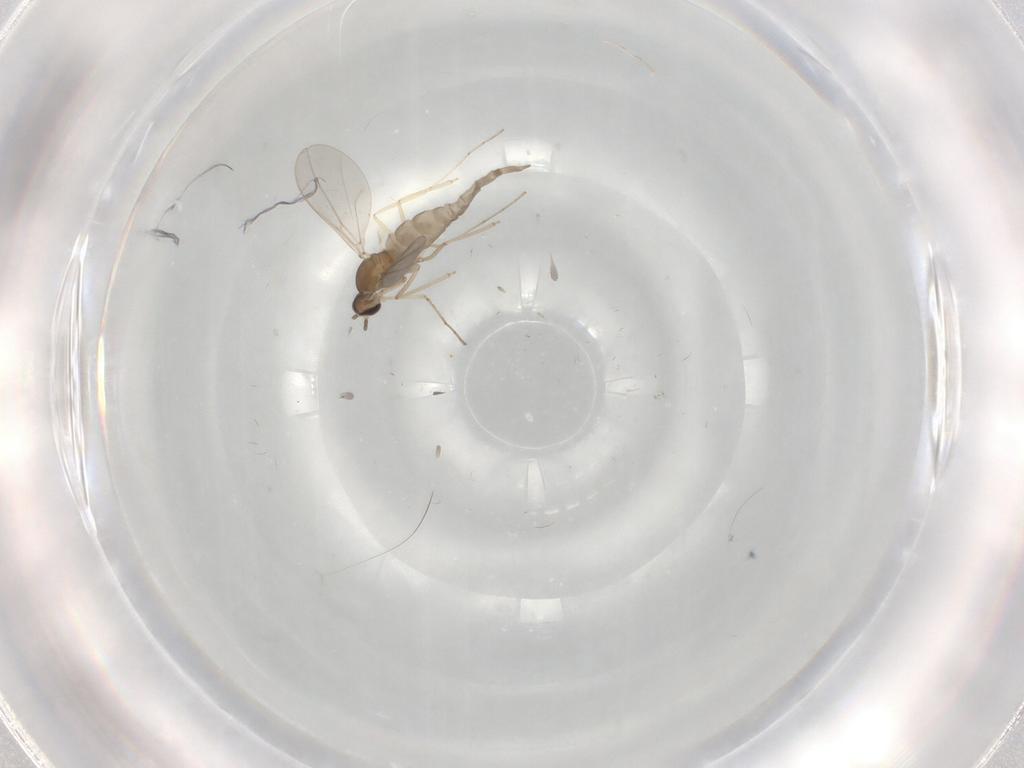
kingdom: Animalia
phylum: Arthropoda
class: Insecta
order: Diptera
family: Cecidomyiidae
